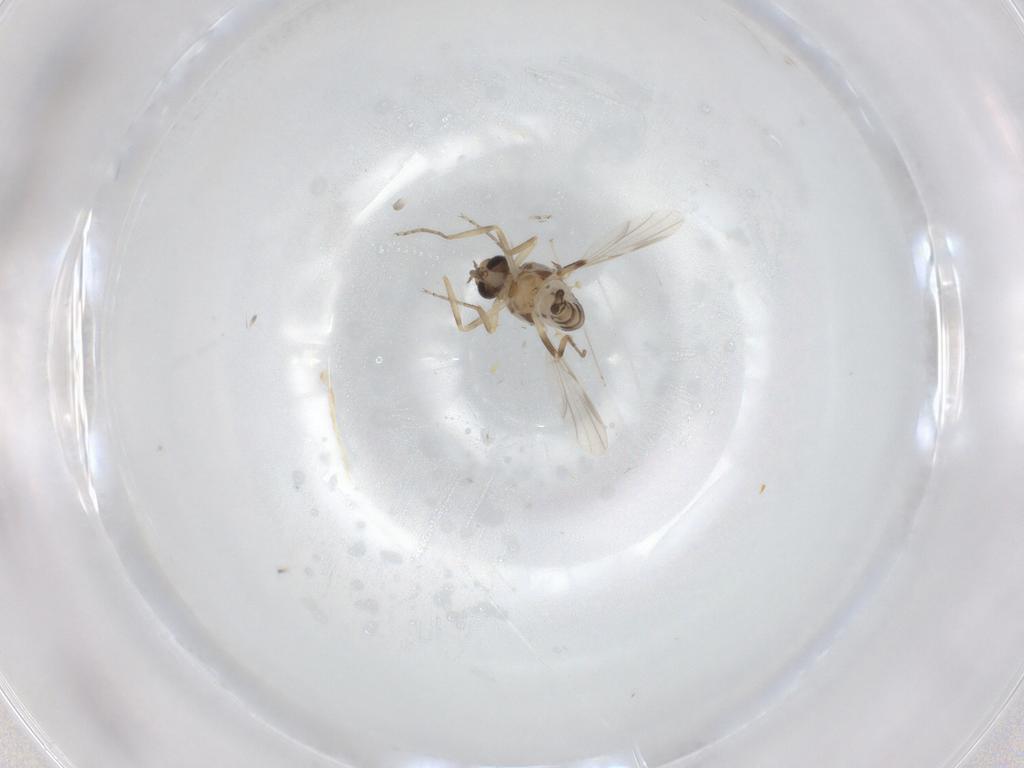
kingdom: Animalia
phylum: Arthropoda
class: Insecta
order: Diptera
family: Ceratopogonidae
